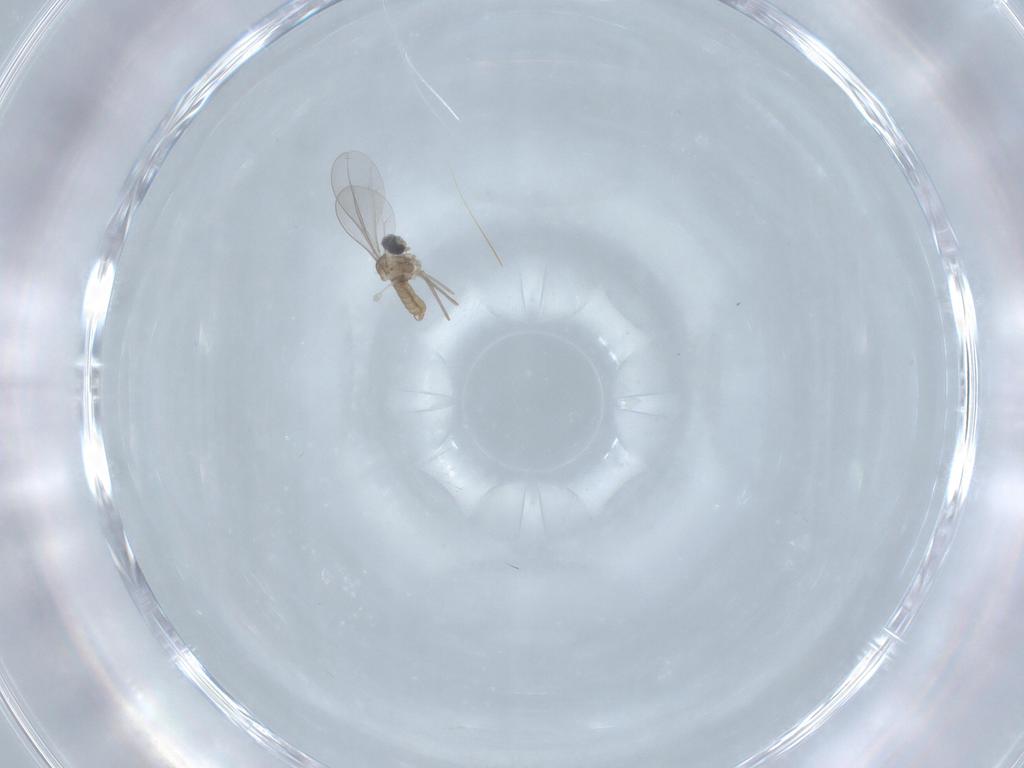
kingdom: Animalia
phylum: Arthropoda
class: Insecta
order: Diptera
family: Cecidomyiidae
